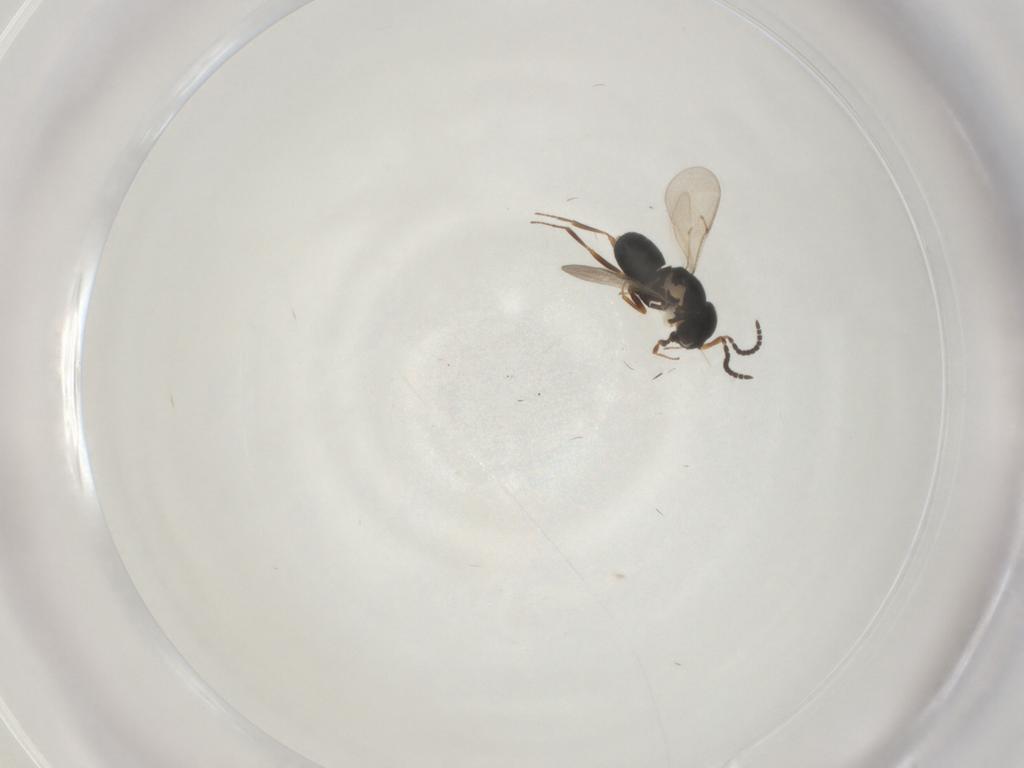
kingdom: Animalia
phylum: Arthropoda
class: Insecta
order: Hymenoptera
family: Scelionidae
